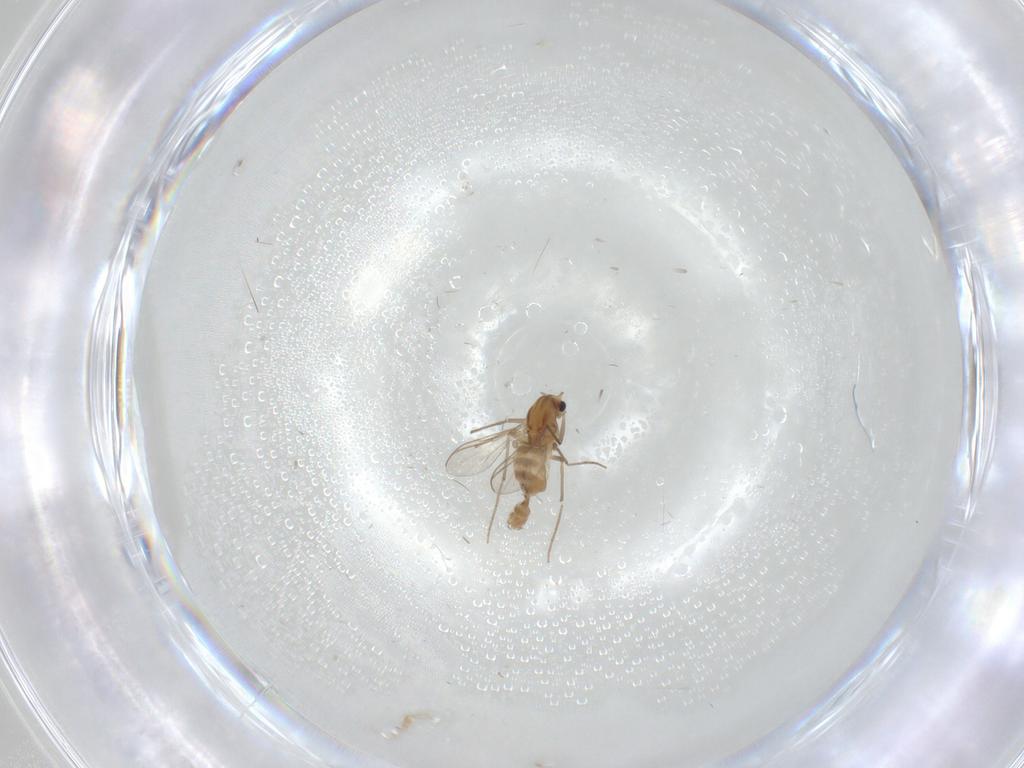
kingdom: Animalia
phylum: Arthropoda
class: Insecta
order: Diptera
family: Chironomidae
